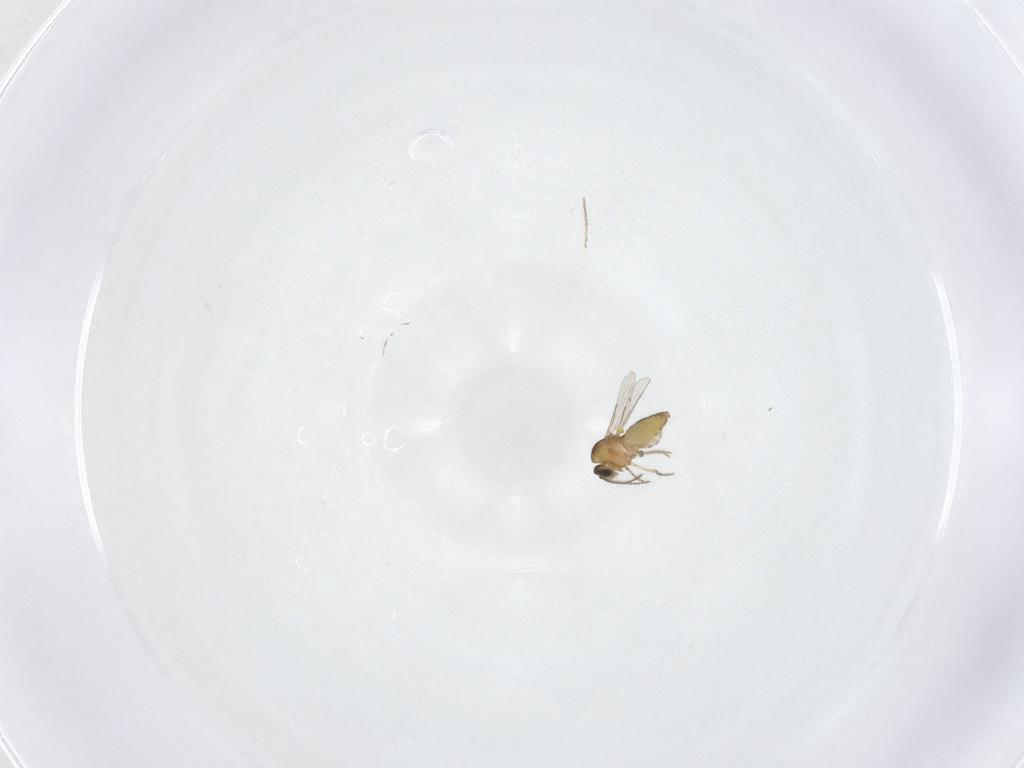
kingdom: Animalia
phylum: Arthropoda
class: Insecta
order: Diptera
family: Ceratopogonidae
